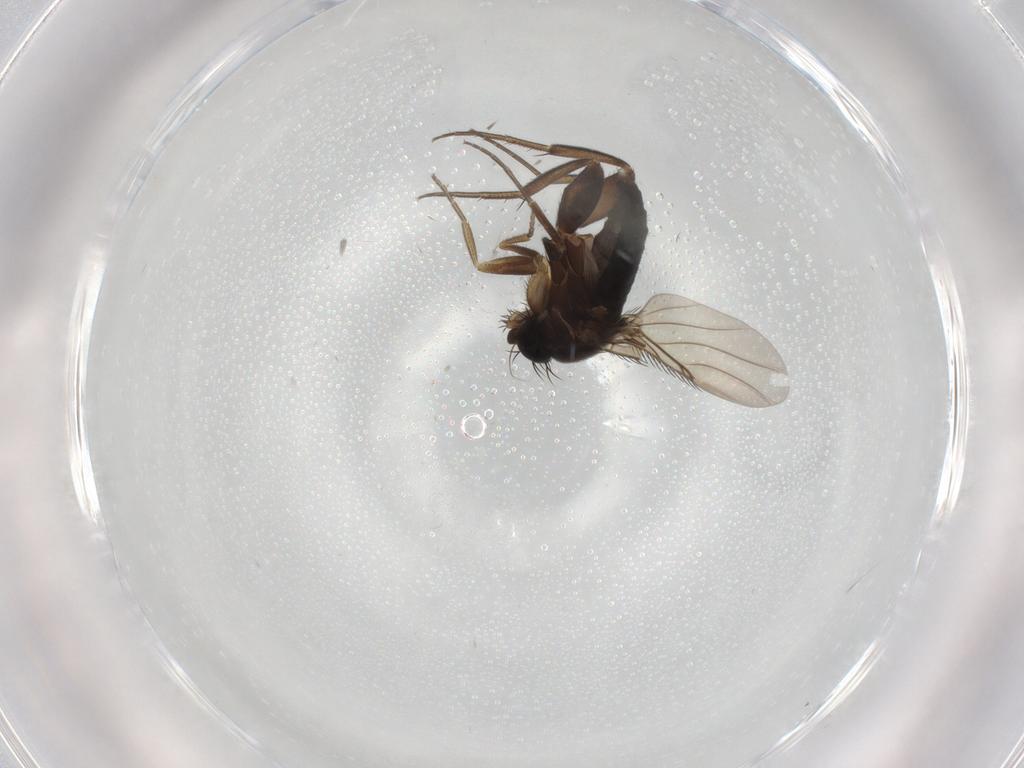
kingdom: Animalia
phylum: Arthropoda
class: Insecta
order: Diptera
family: Phoridae
